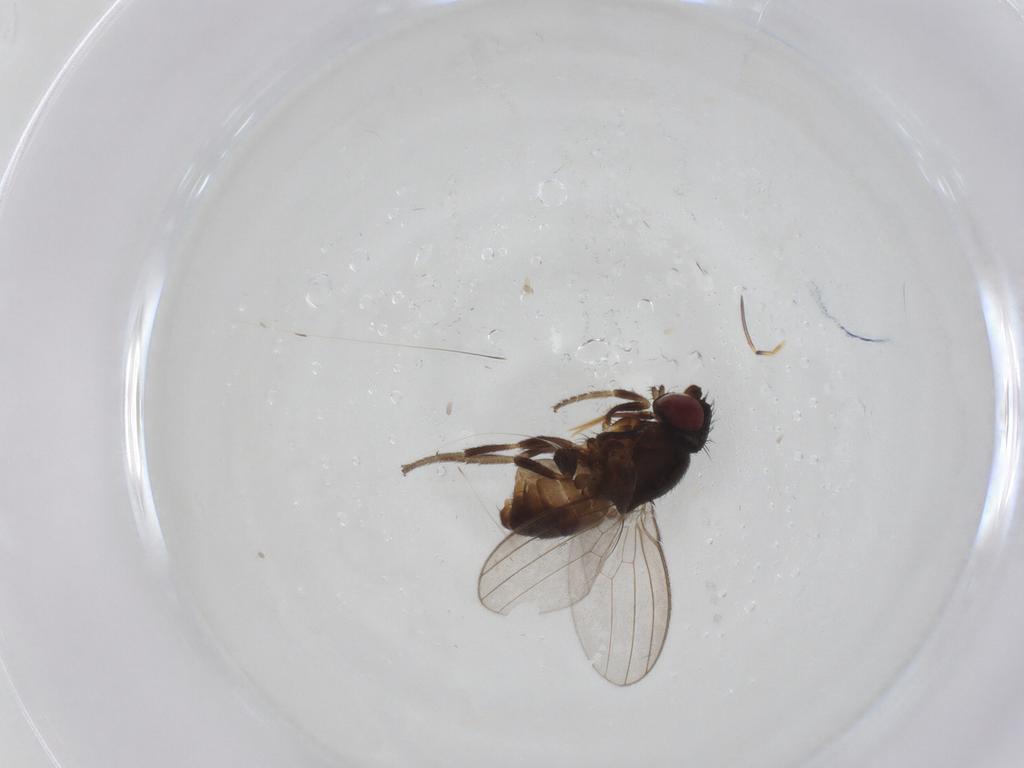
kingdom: Animalia
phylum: Arthropoda
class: Insecta
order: Diptera
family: Milichiidae
